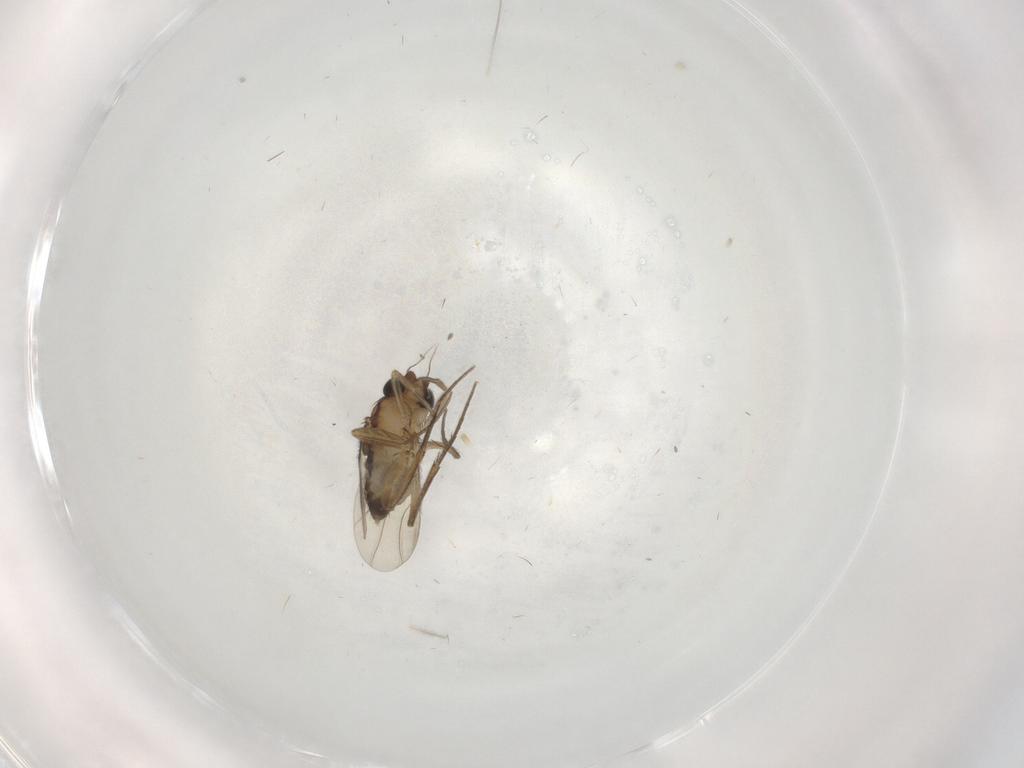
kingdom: Animalia
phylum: Arthropoda
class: Insecta
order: Diptera
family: Phoridae
